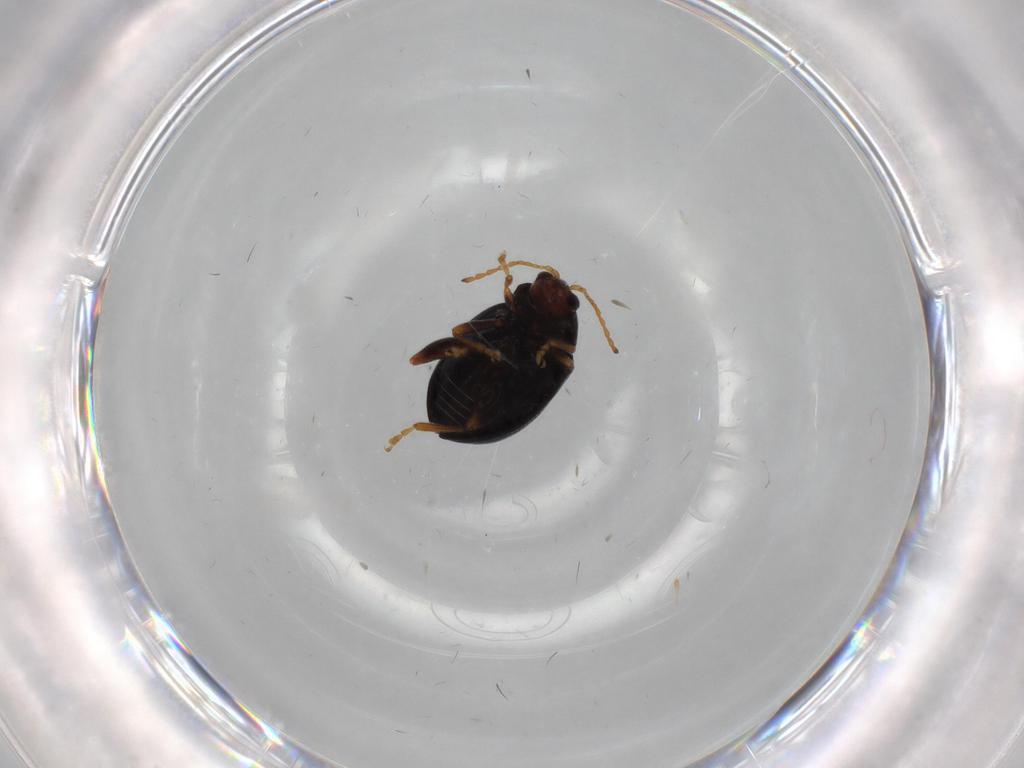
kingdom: Animalia
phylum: Arthropoda
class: Insecta
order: Coleoptera
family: Chrysomelidae
